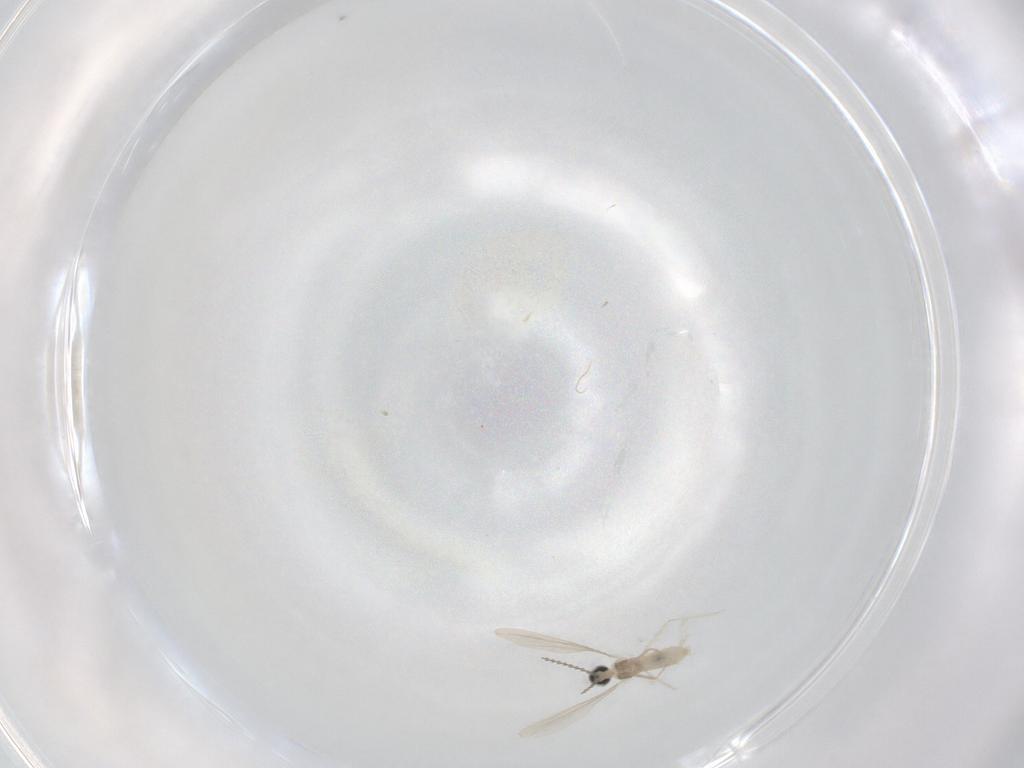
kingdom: Animalia
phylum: Arthropoda
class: Insecta
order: Diptera
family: Cecidomyiidae
